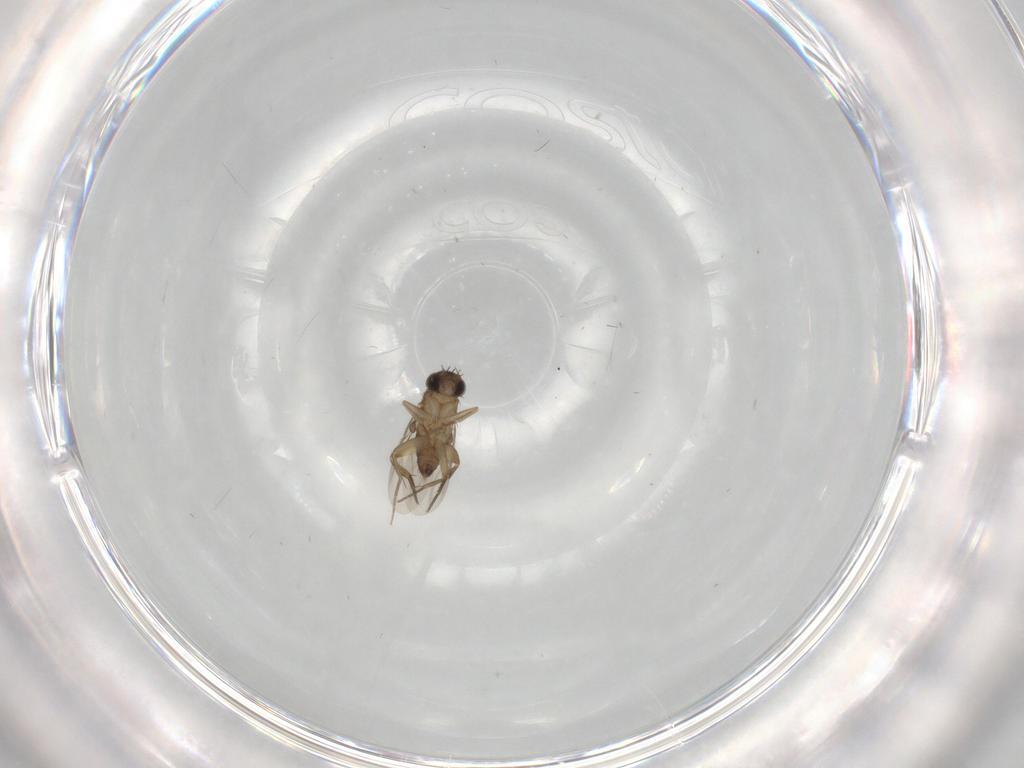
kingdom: Animalia
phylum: Arthropoda
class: Insecta
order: Diptera
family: Phoridae
